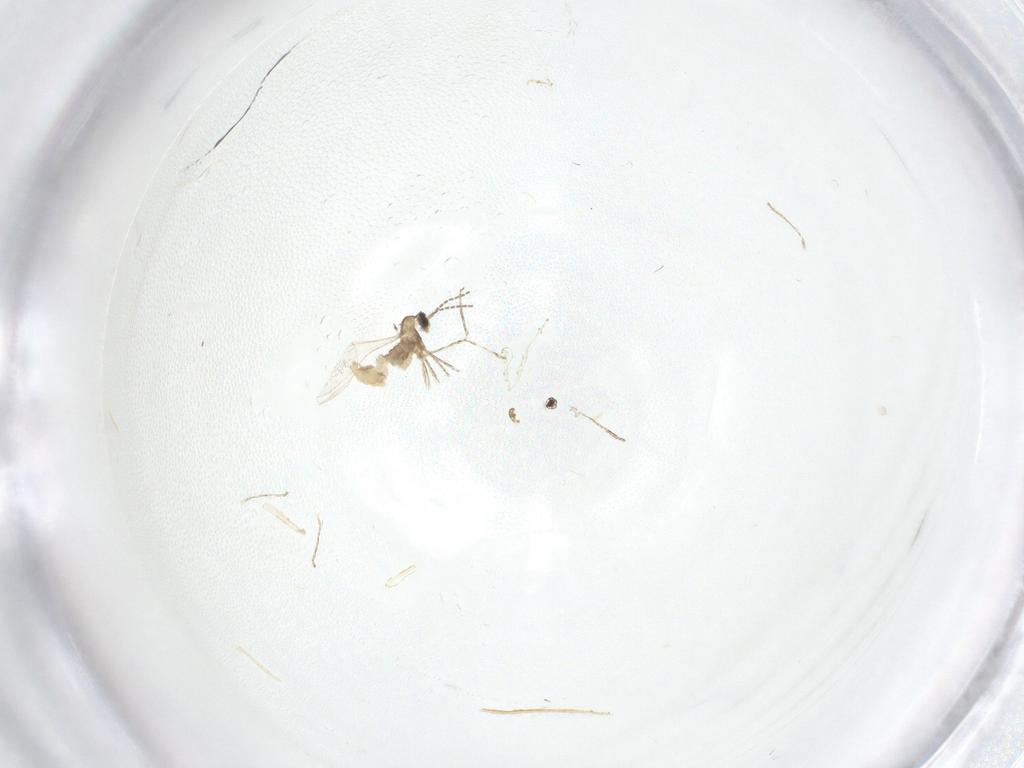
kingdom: Animalia
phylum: Arthropoda
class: Insecta
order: Diptera
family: Cecidomyiidae
